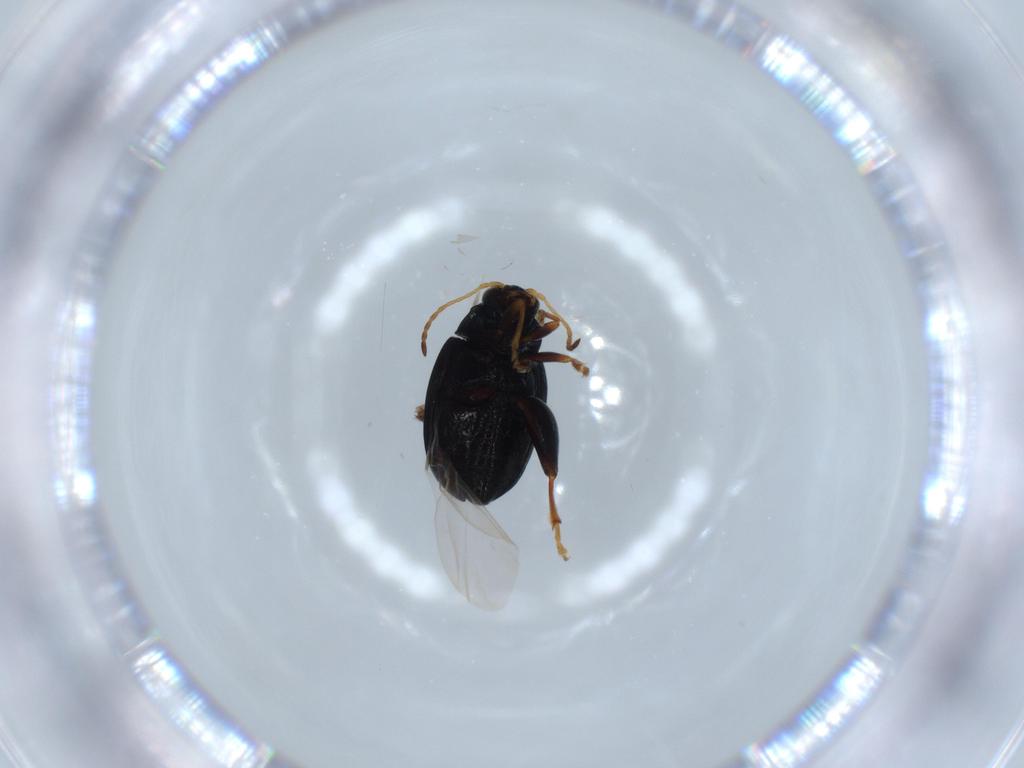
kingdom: Animalia
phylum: Arthropoda
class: Insecta
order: Coleoptera
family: Chrysomelidae
